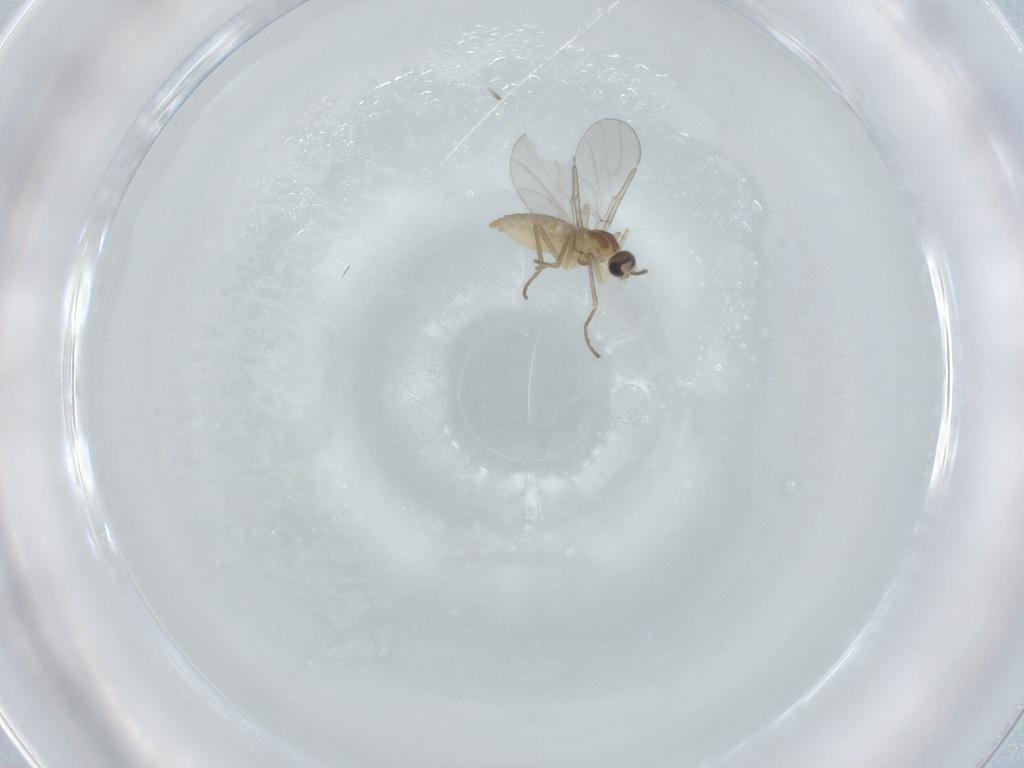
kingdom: Animalia
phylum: Arthropoda
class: Insecta
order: Diptera
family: Cecidomyiidae
